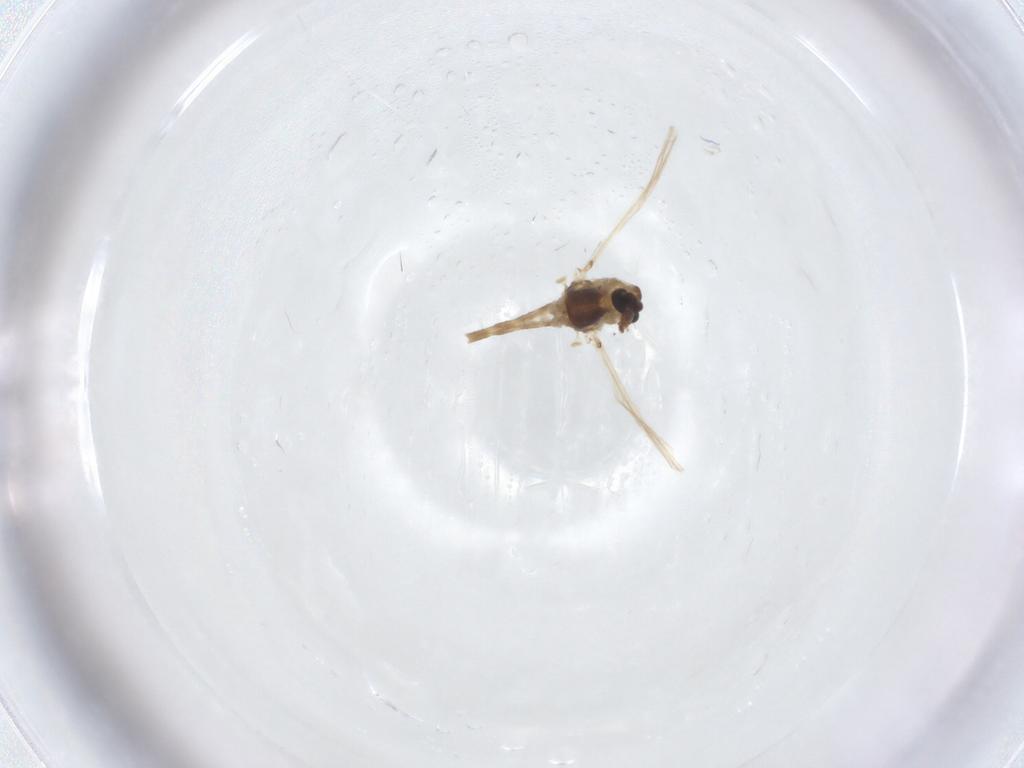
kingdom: Animalia
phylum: Arthropoda
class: Insecta
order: Diptera
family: Chironomidae
